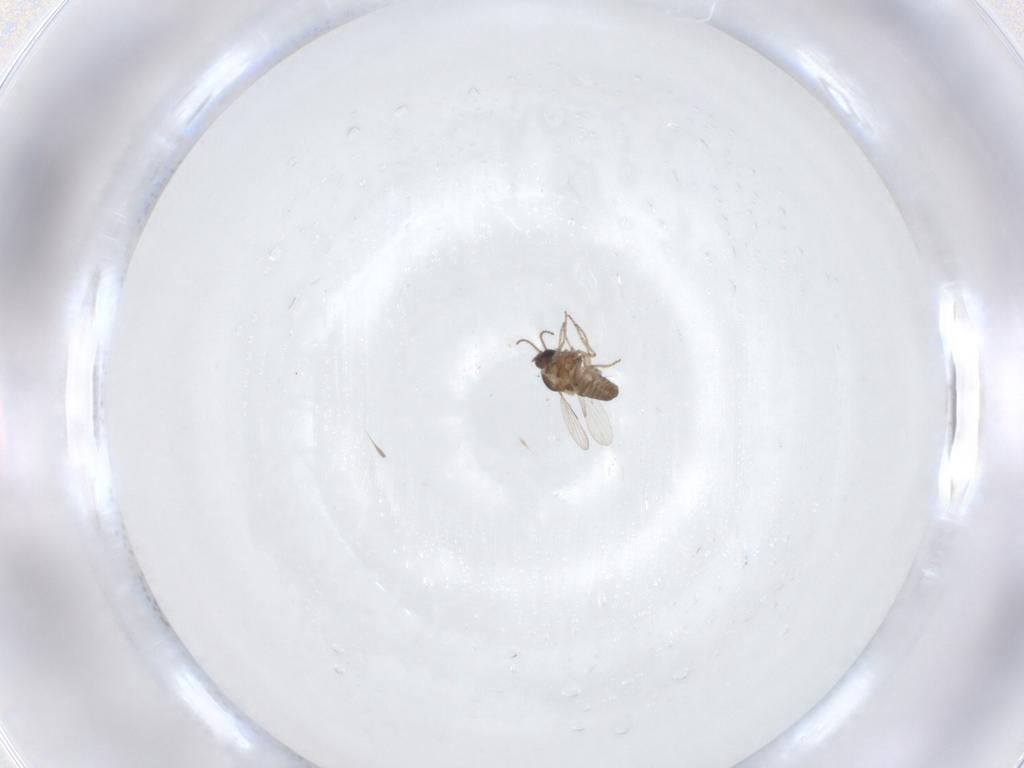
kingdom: Animalia
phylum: Arthropoda
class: Insecta
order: Diptera
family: Ceratopogonidae
